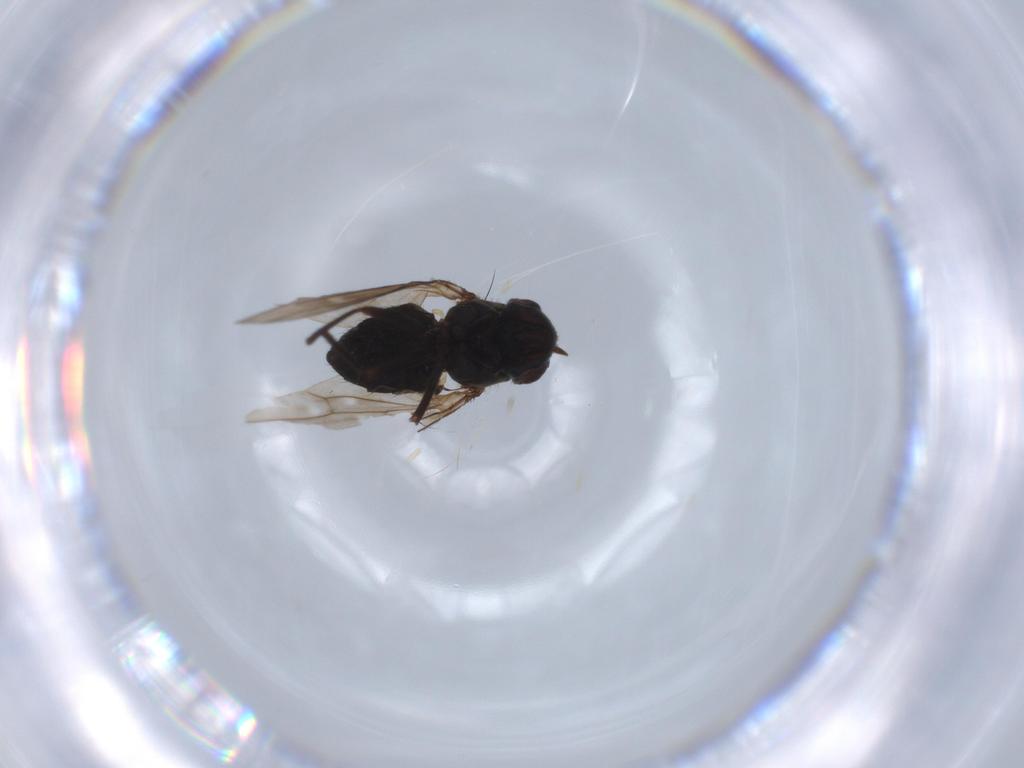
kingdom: Animalia
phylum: Arthropoda
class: Insecta
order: Diptera
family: Ephydridae
